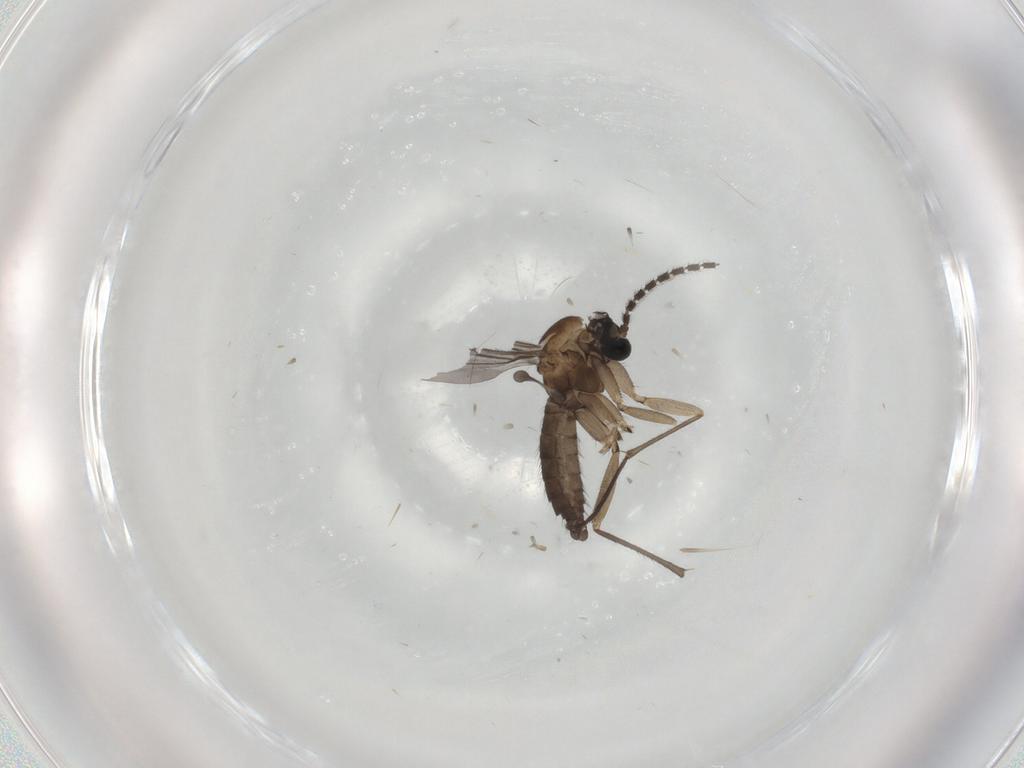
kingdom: Animalia
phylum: Arthropoda
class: Insecta
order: Diptera
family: Sciaridae
